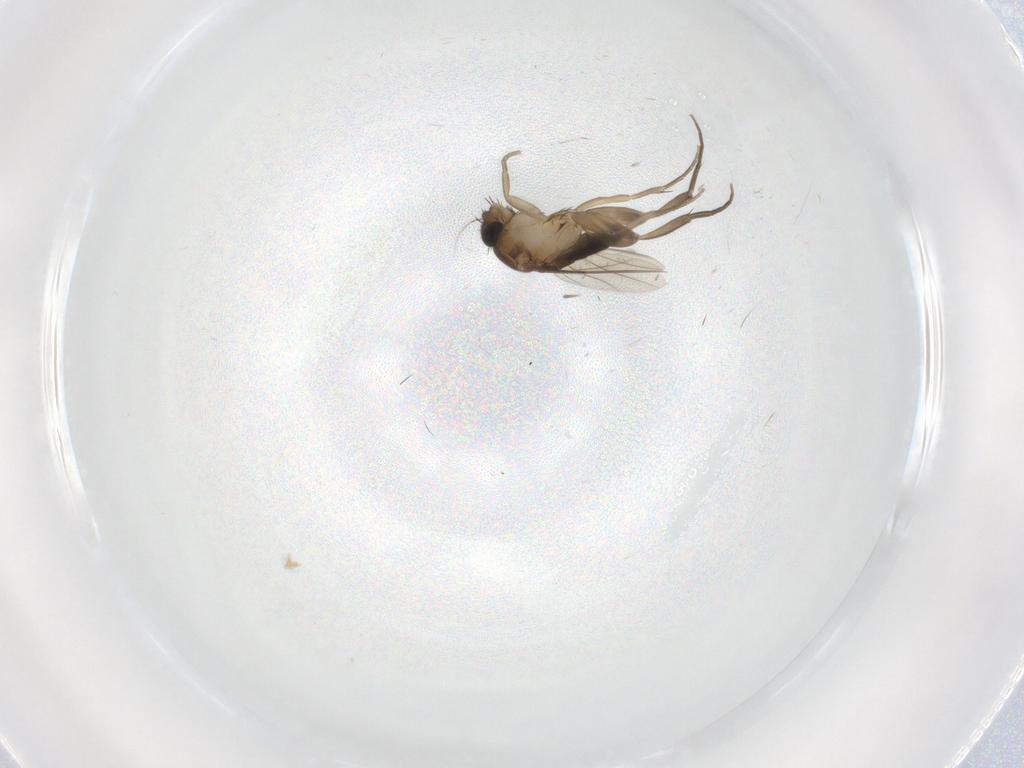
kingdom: Animalia
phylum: Arthropoda
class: Insecta
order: Diptera
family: Phoridae
